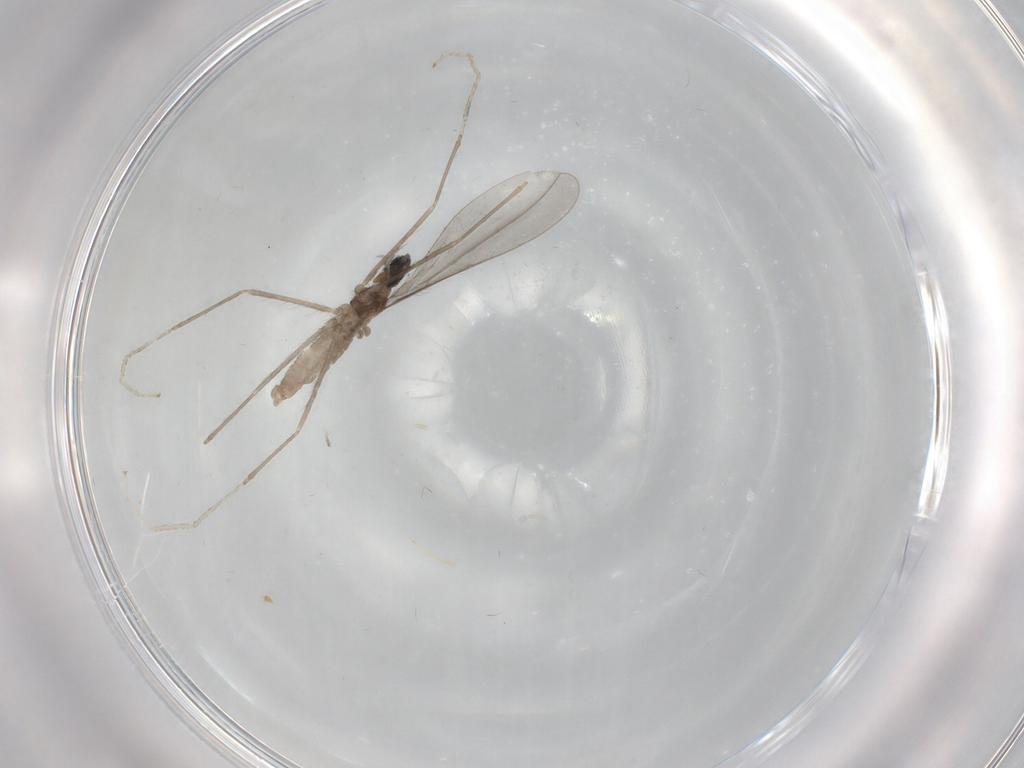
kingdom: Animalia
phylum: Arthropoda
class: Insecta
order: Diptera
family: Cecidomyiidae
